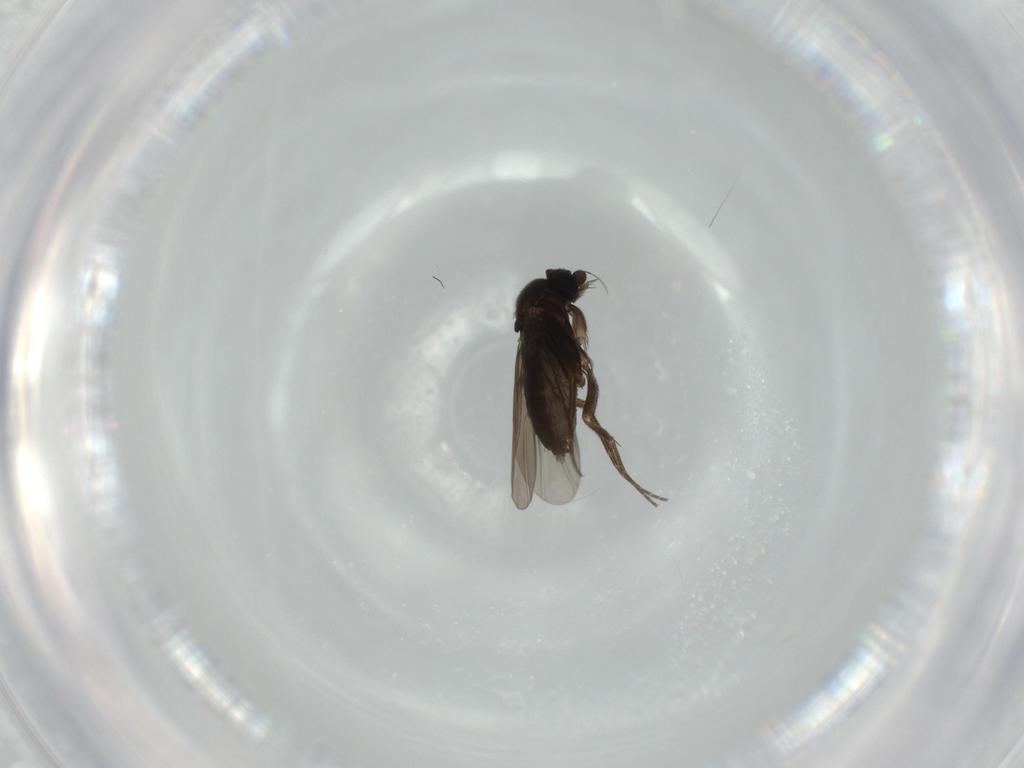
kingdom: Animalia
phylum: Arthropoda
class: Insecta
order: Diptera
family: Phoridae
